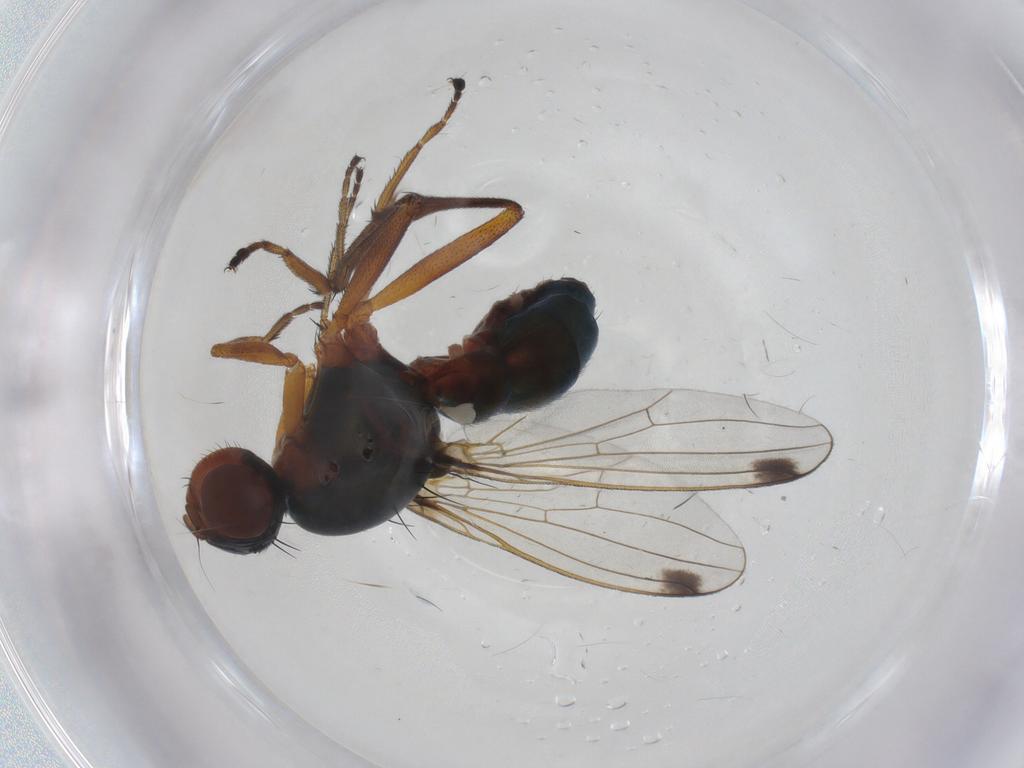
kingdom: Animalia
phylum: Arthropoda
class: Insecta
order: Diptera
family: Sepsidae
